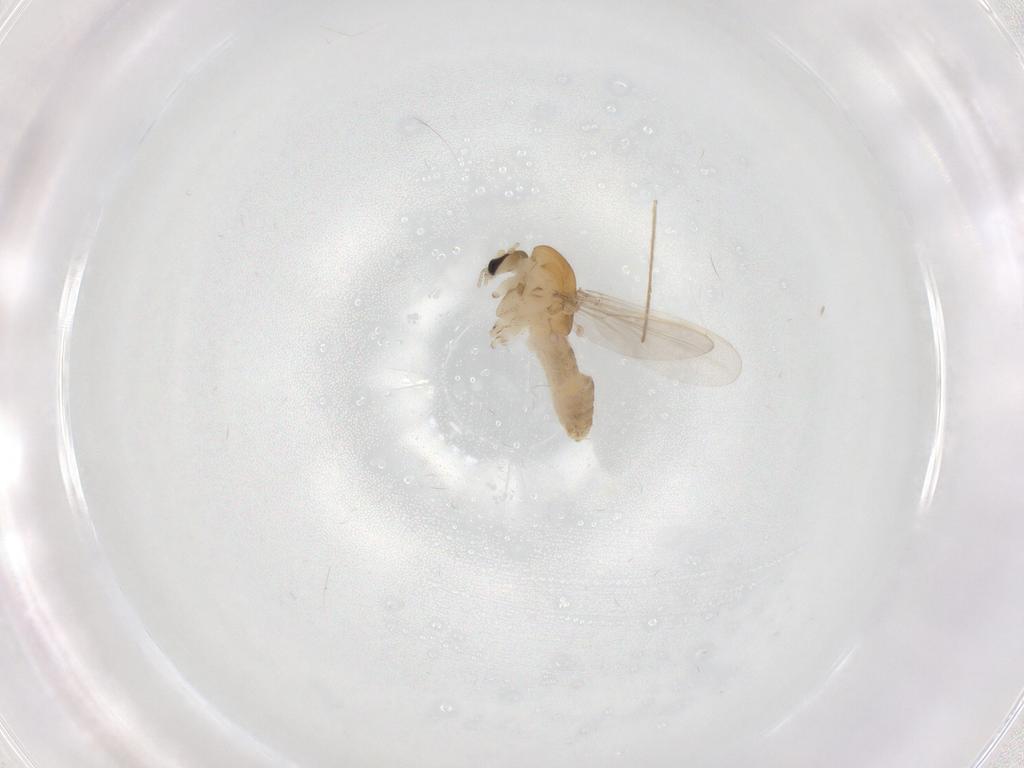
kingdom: Animalia
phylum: Arthropoda
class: Insecta
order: Diptera
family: Chironomidae
